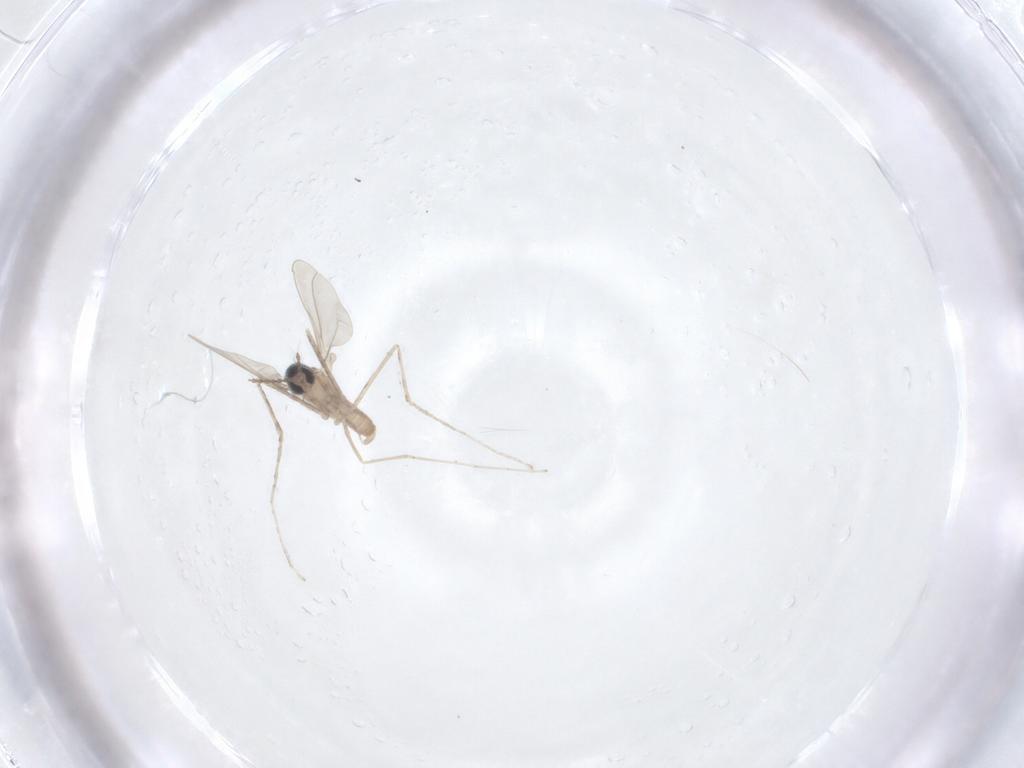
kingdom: Animalia
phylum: Arthropoda
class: Insecta
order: Diptera
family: Cecidomyiidae
